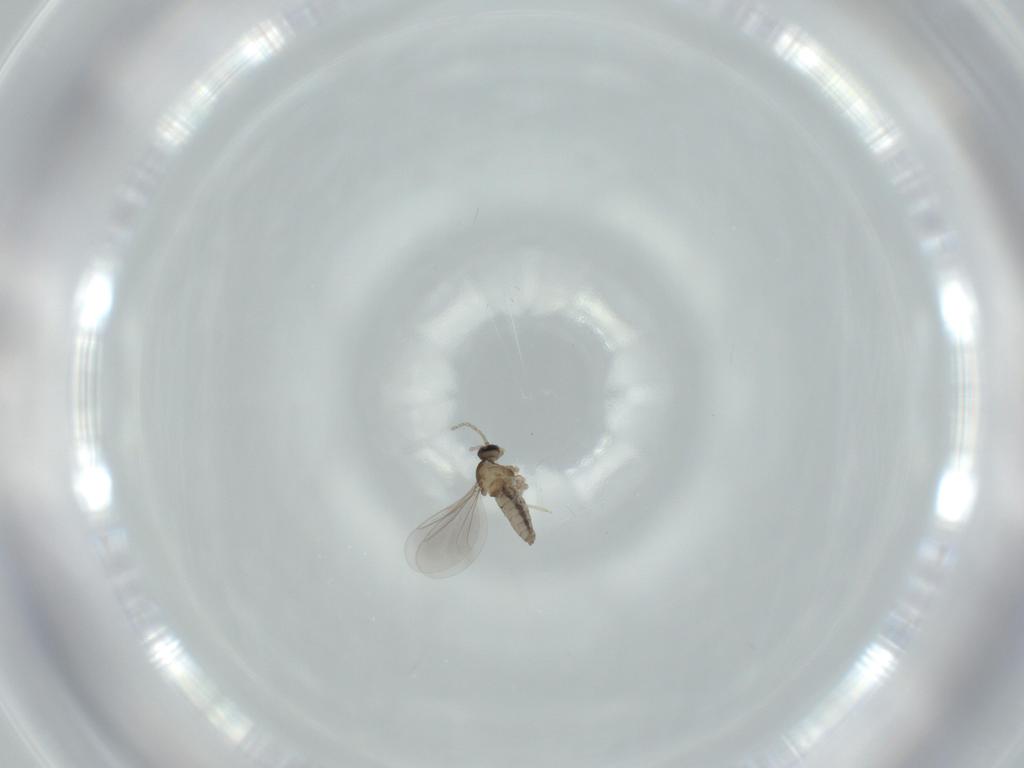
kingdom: Animalia
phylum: Arthropoda
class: Insecta
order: Diptera
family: Cecidomyiidae
